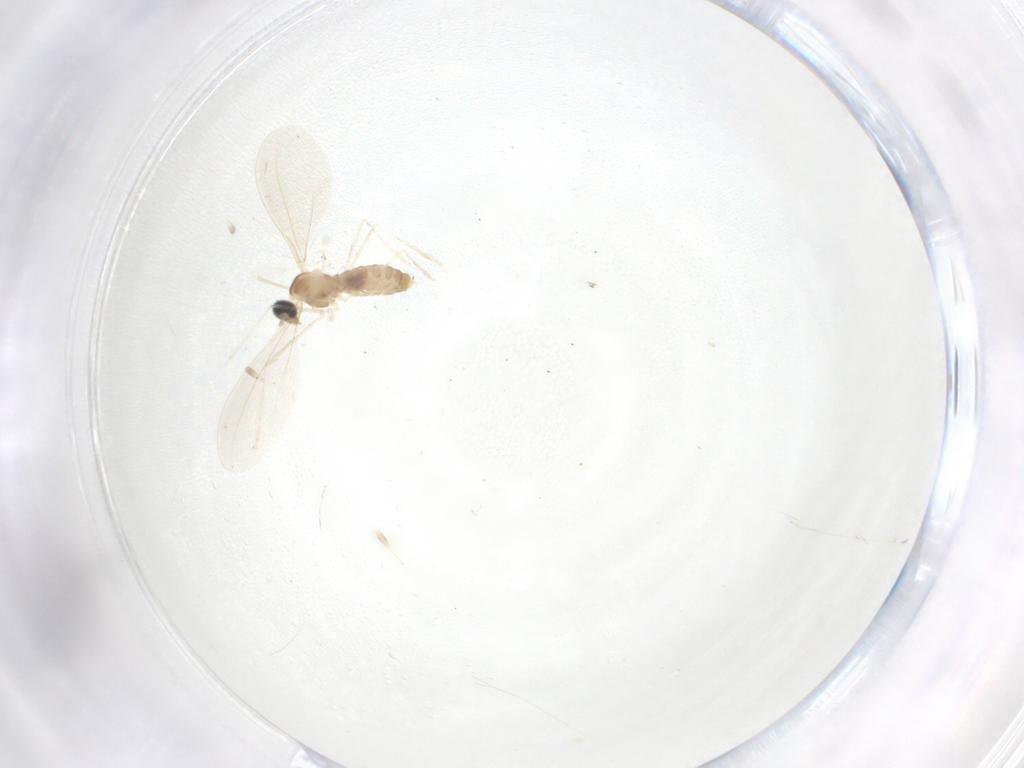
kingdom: Animalia
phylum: Arthropoda
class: Insecta
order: Diptera
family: Cecidomyiidae
